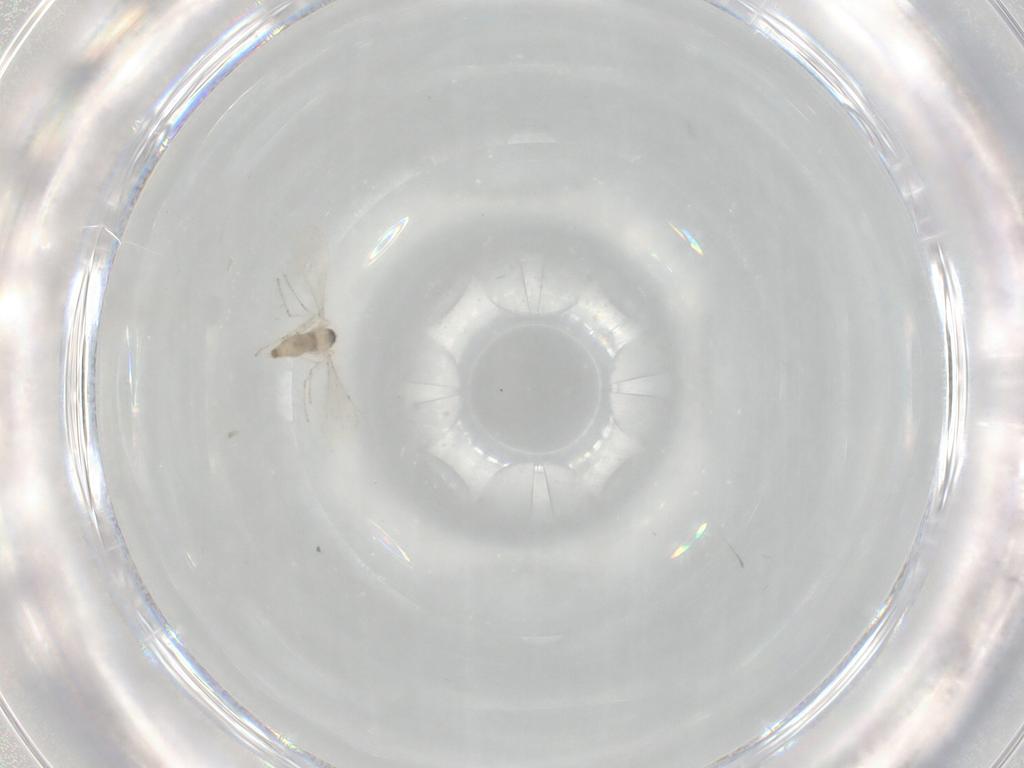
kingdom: Animalia
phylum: Arthropoda
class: Insecta
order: Diptera
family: Cecidomyiidae
